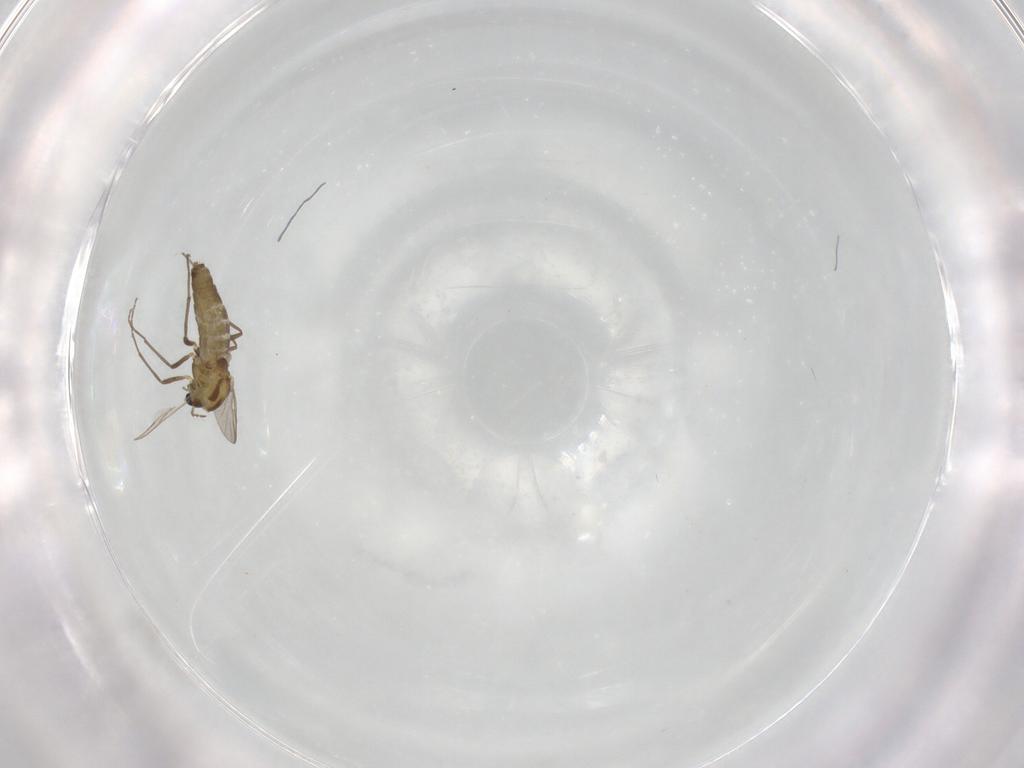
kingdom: Animalia
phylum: Arthropoda
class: Insecta
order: Diptera
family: Chironomidae
